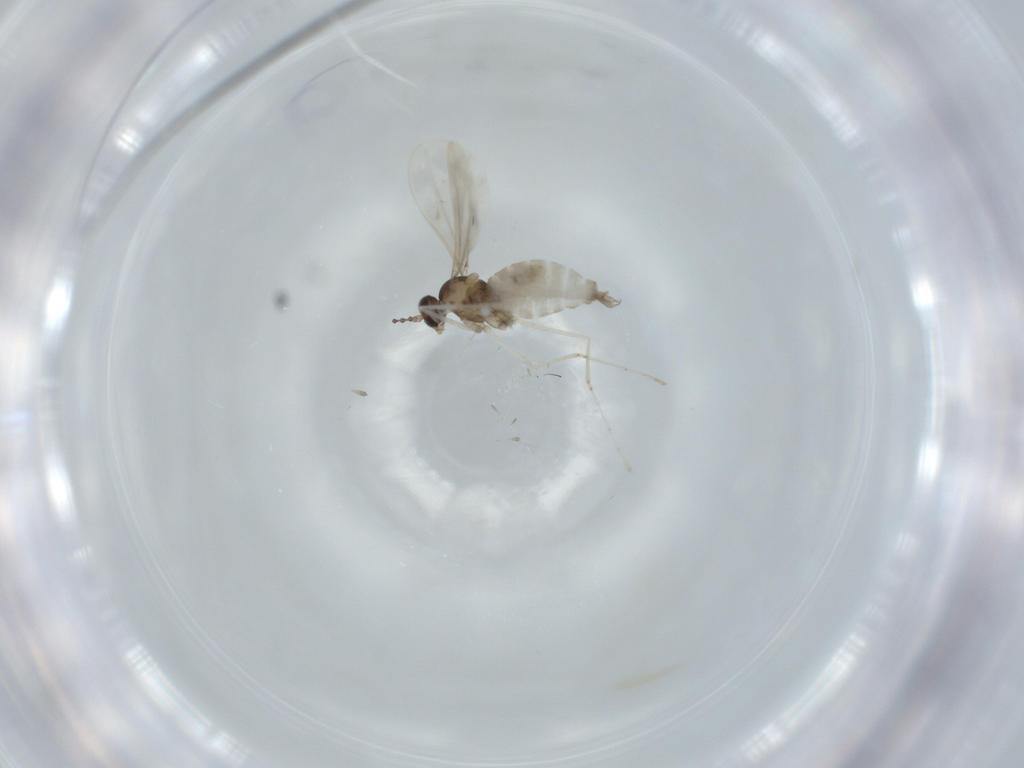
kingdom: Animalia
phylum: Arthropoda
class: Insecta
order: Diptera
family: Cecidomyiidae
